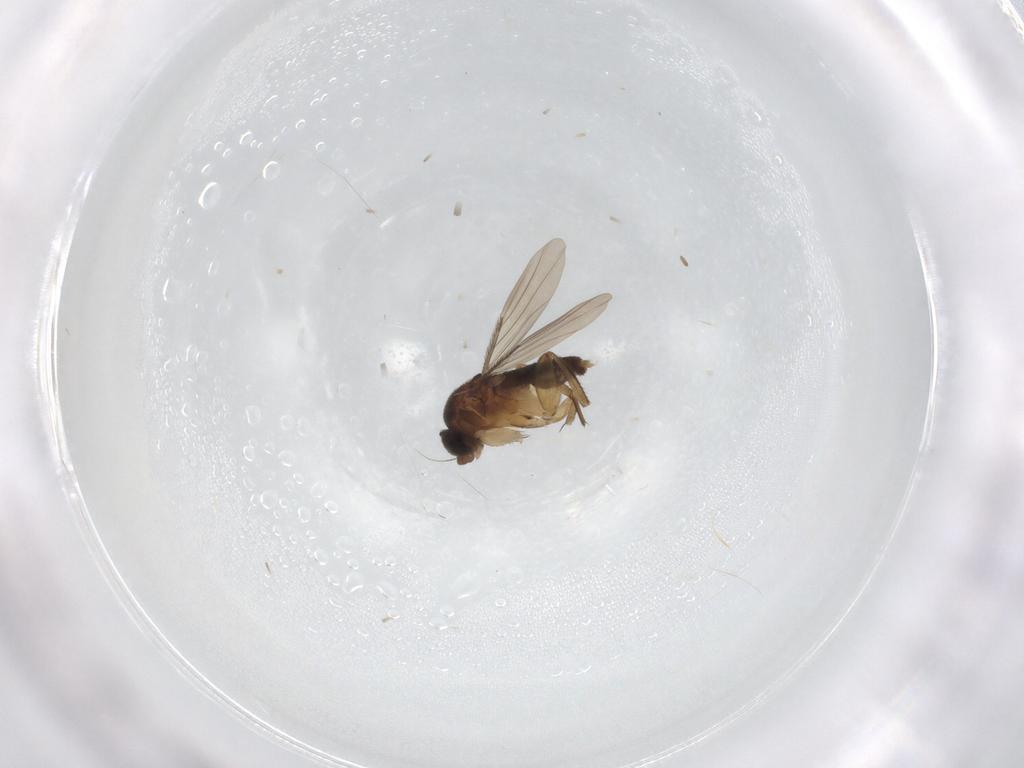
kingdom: Animalia
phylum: Arthropoda
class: Insecta
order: Diptera
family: Phoridae
